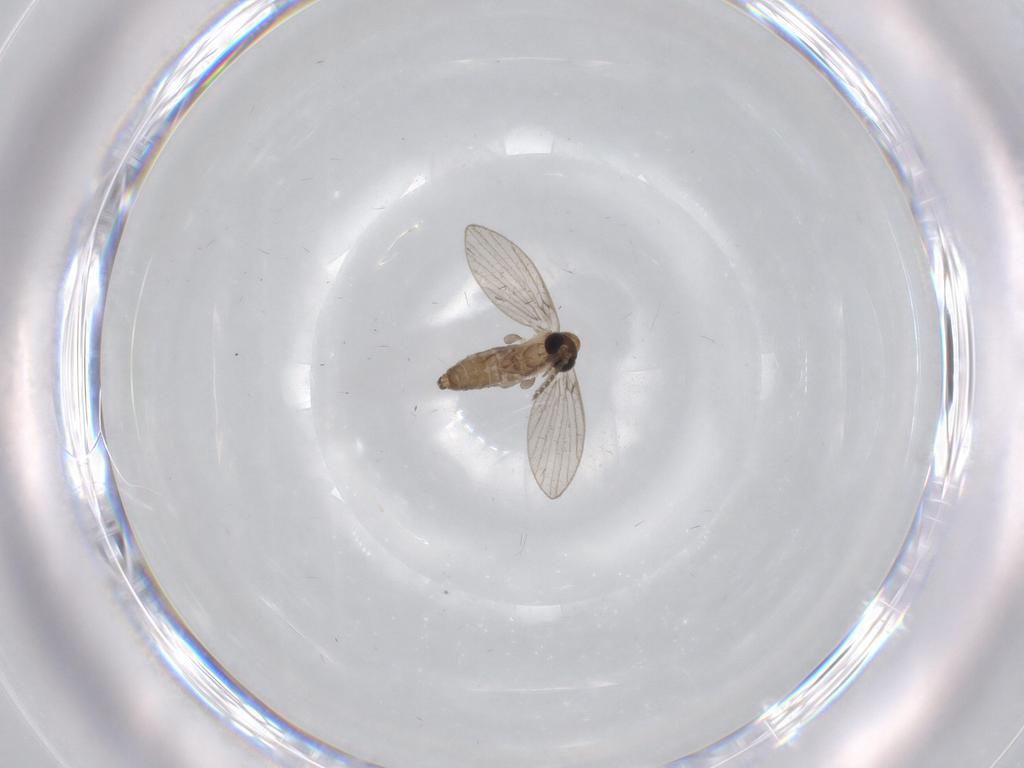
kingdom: Animalia
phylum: Arthropoda
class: Insecta
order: Diptera
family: Psychodidae
